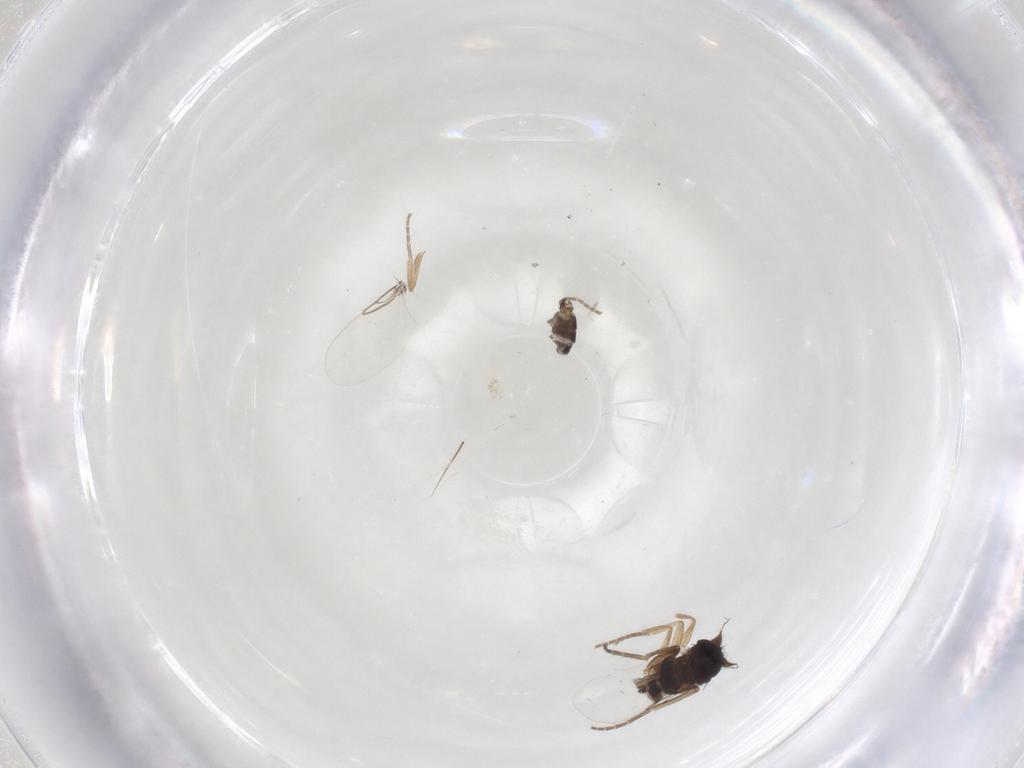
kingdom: Animalia
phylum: Arthropoda
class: Insecta
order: Diptera
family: Phoridae
